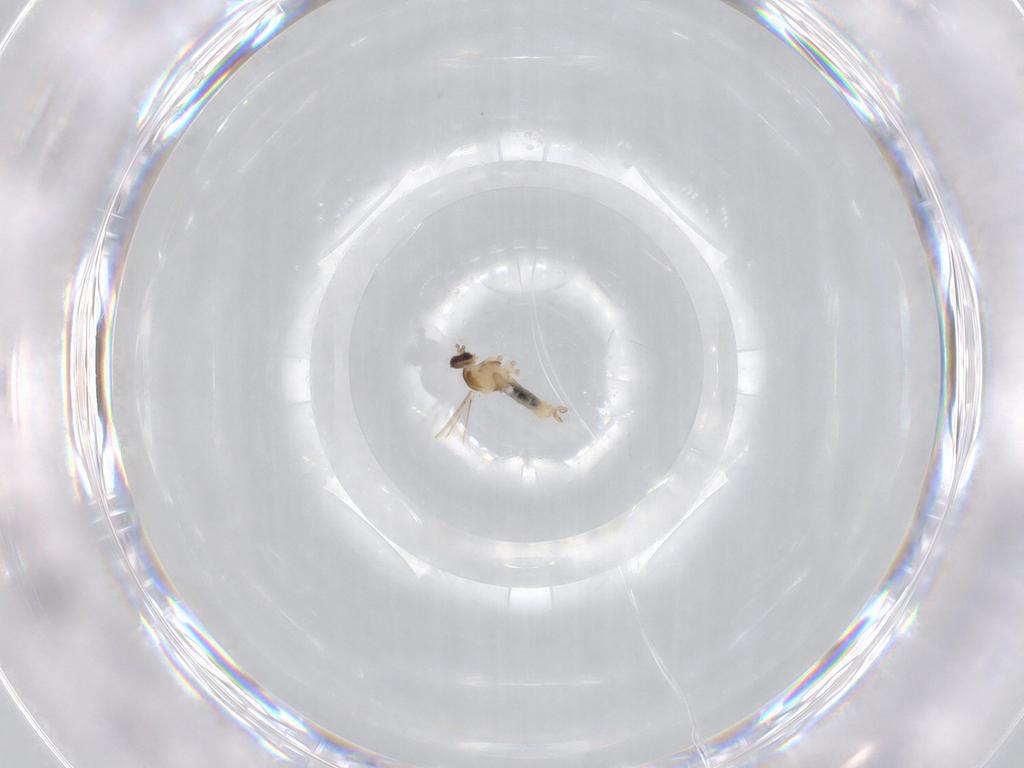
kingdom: Animalia
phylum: Arthropoda
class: Insecta
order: Diptera
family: Cecidomyiidae
